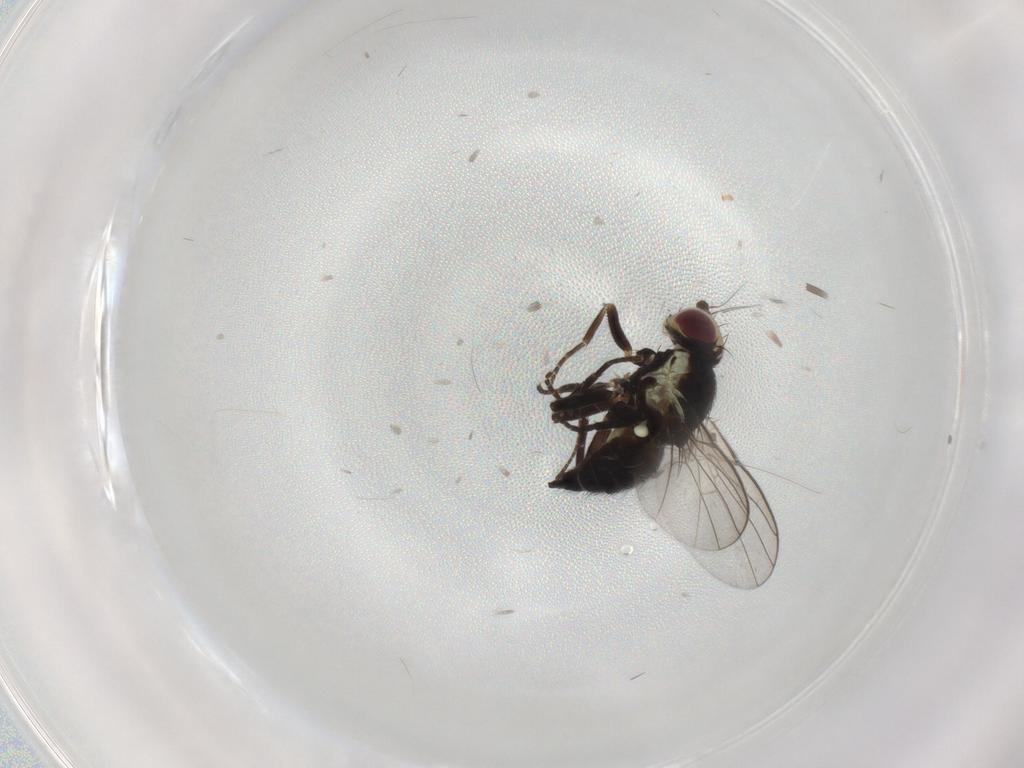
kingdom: Animalia
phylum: Arthropoda
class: Insecta
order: Diptera
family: Agromyzidae
